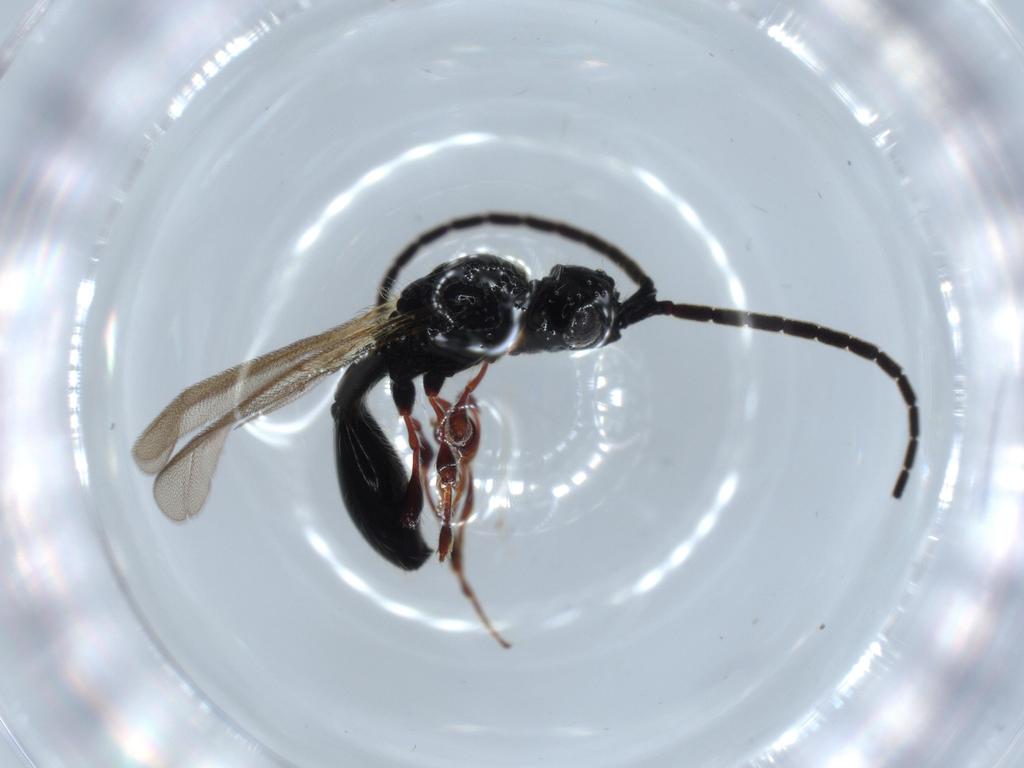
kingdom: Animalia
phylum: Arthropoda
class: Insecta
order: Hymenoptera
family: Diapriidae
